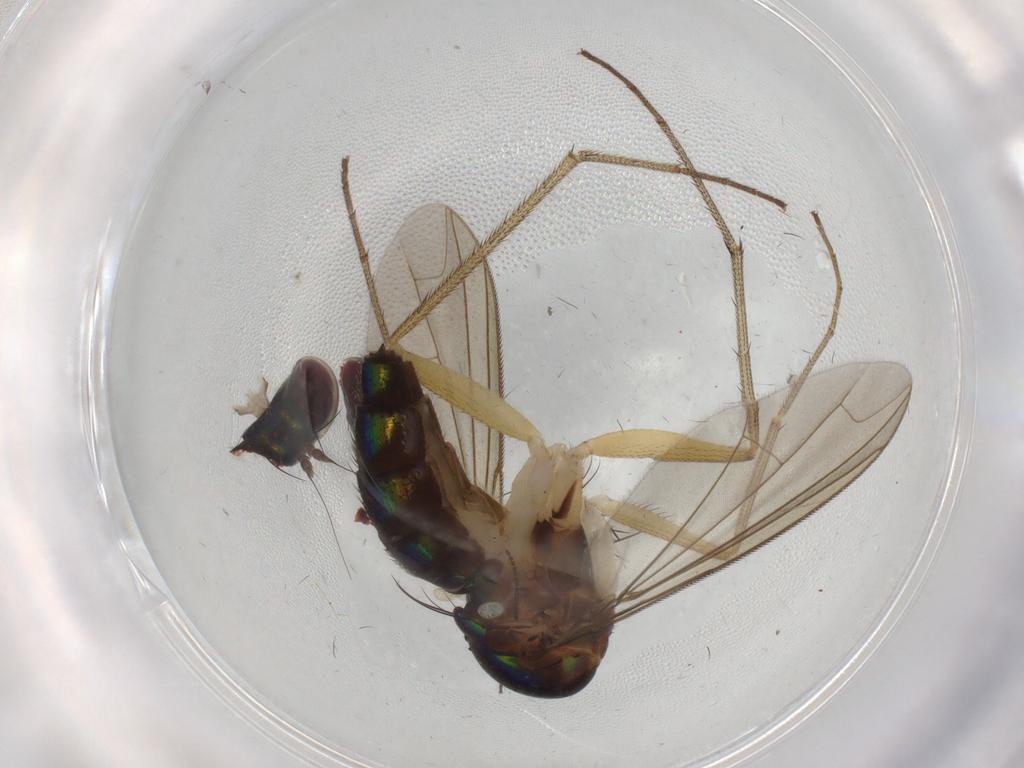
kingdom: Animalia
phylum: Arthropoda
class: Insecta
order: Diptera
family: Dolichopodidae
